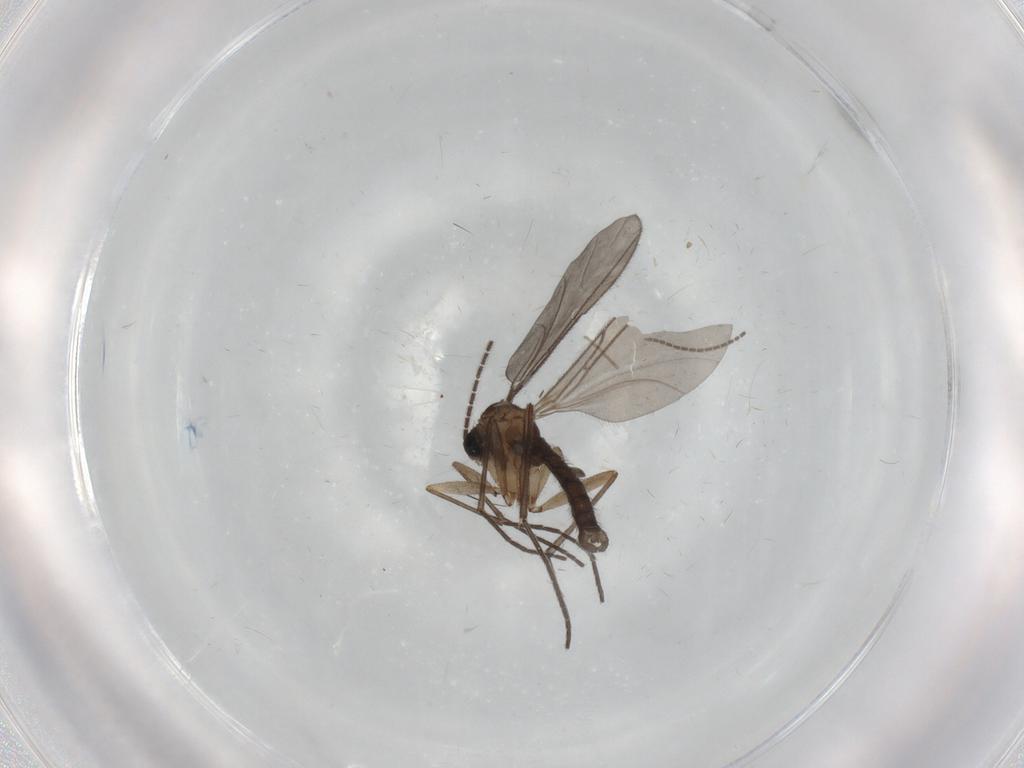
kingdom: Animalia
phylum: Arthropoda
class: Insecta
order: Diptera
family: Sciaridae
